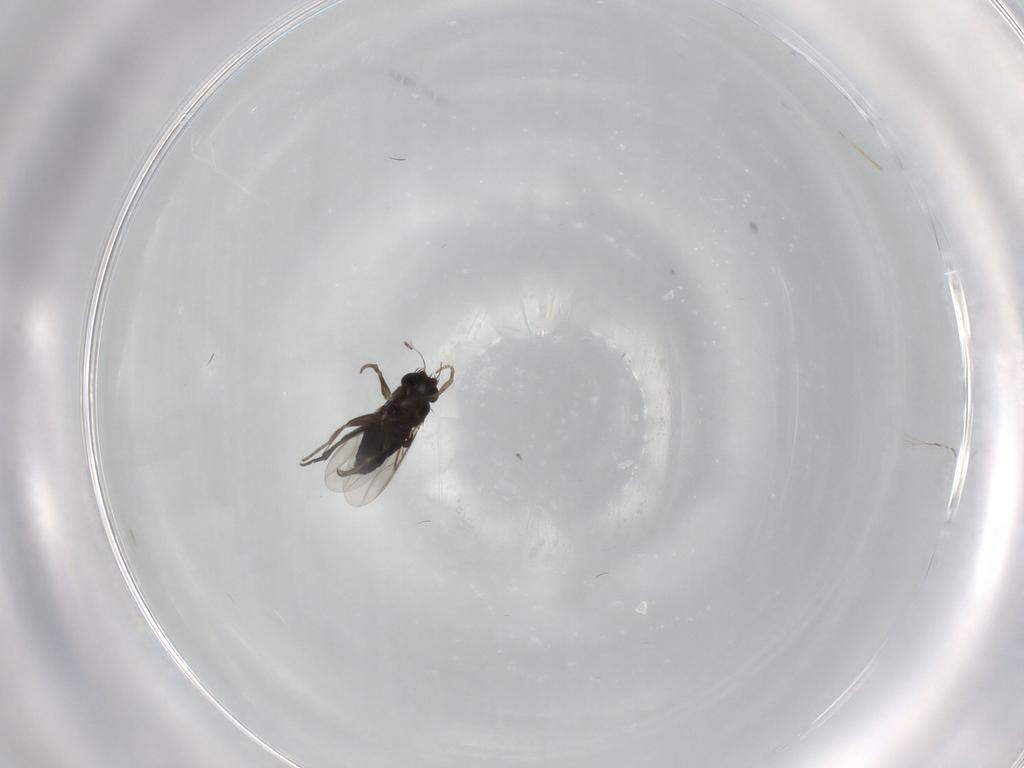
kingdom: Animalia
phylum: Arthropoda
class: Insecta
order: Diptera
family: Phoridae
